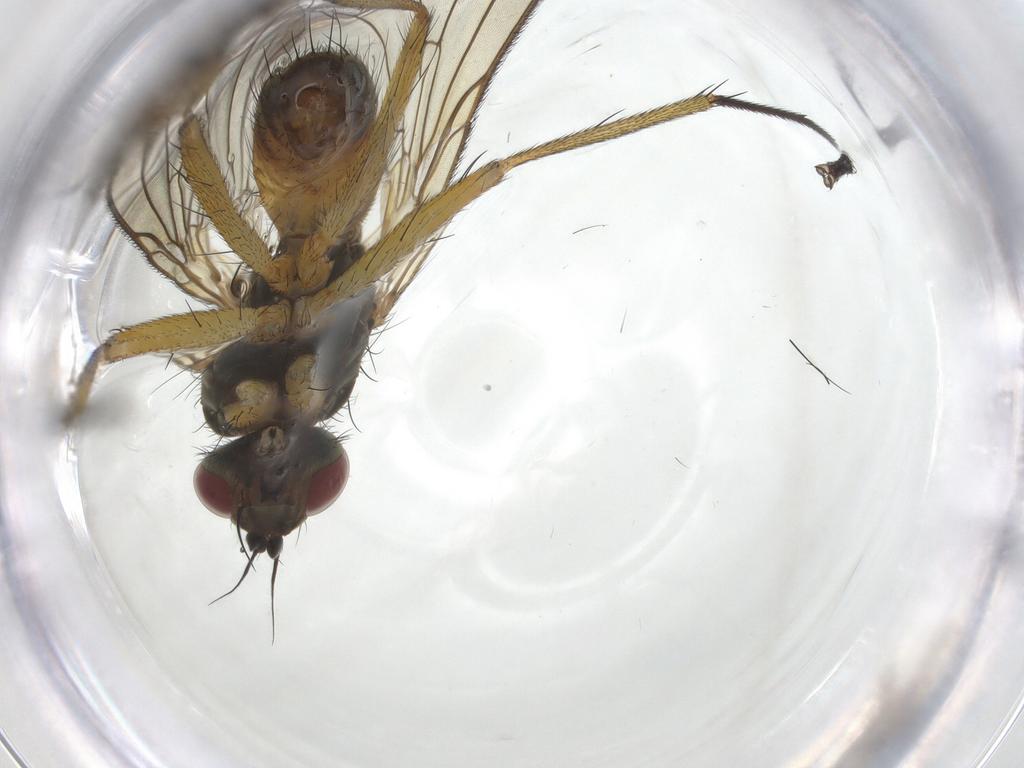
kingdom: Animalia
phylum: Arthropoda
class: Insecta
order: Diptera
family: Muscidae
